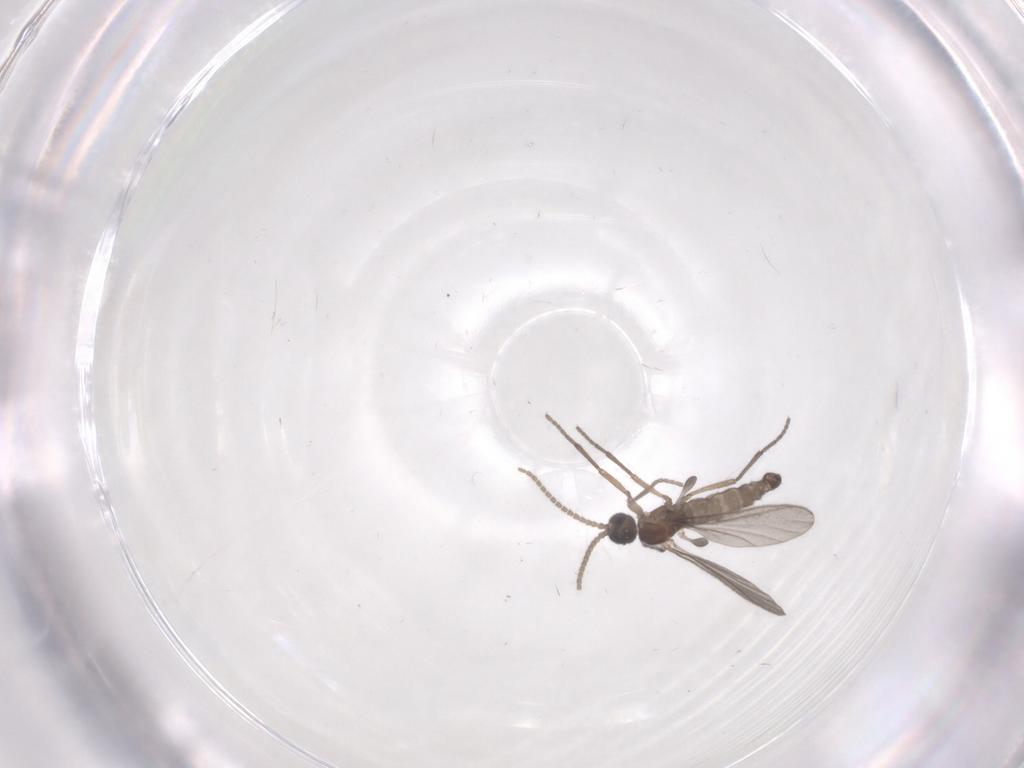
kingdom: Animalia
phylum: Arthropoda
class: Insecta
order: Diptera
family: Sciaridae
